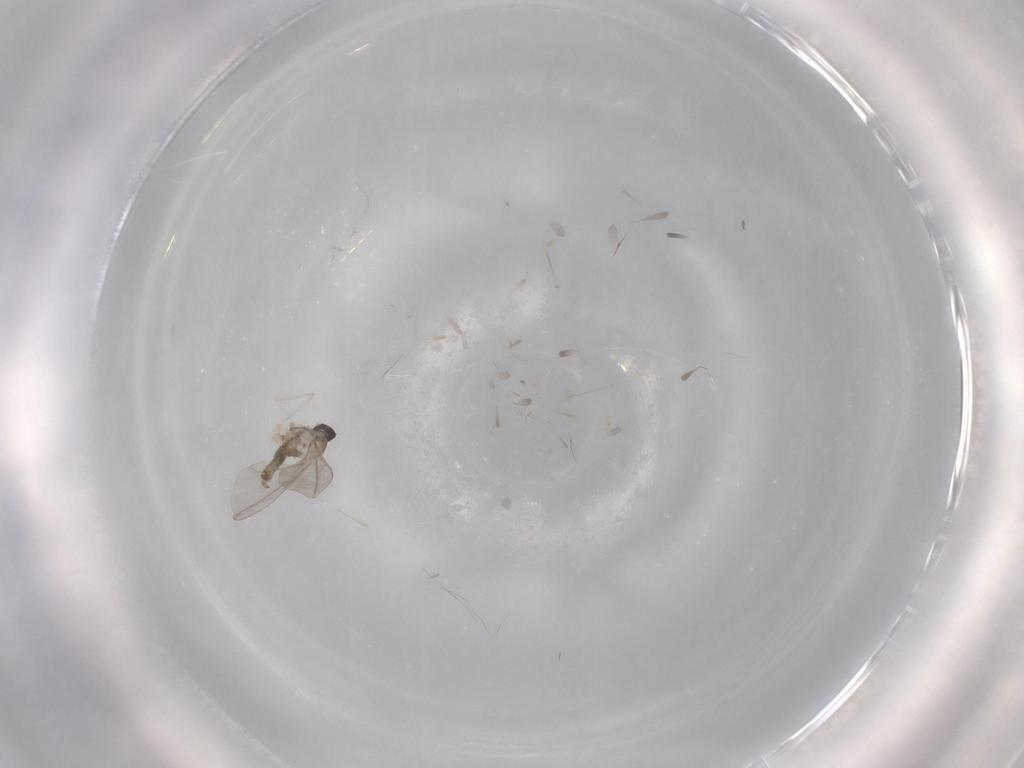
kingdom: Animalia
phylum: Arthropoda
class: Insecta
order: Diptera
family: Cecidomyiidae
